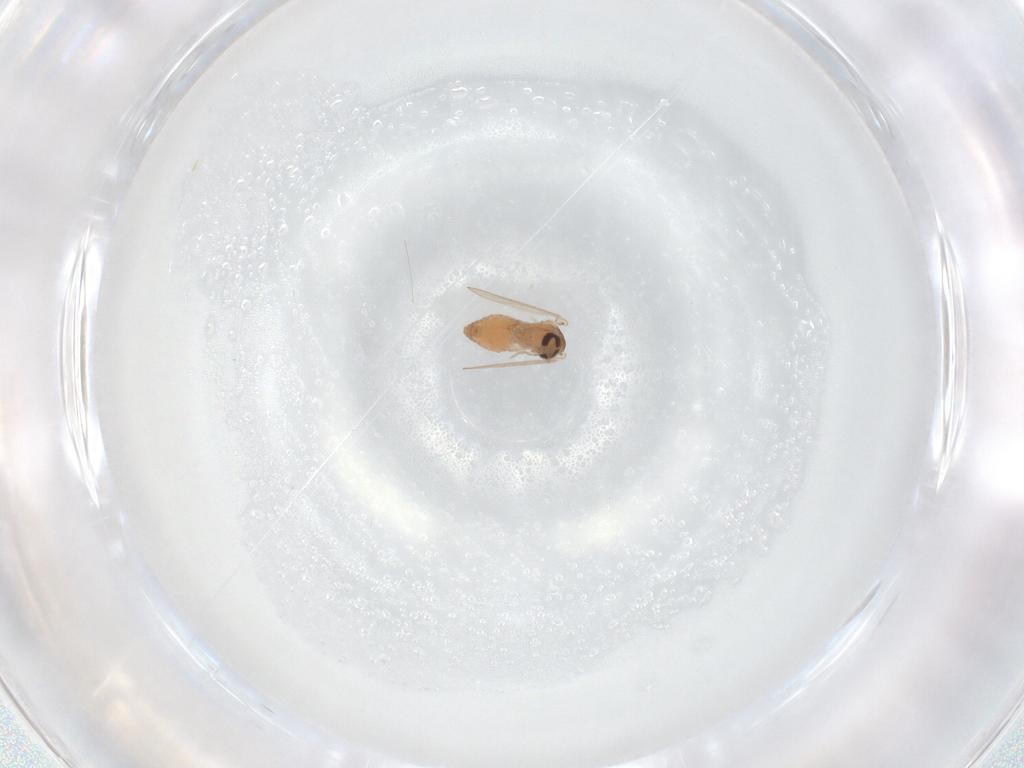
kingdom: Animalia
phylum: Arthropoda
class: Insecta
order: Diptera
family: Psychodidae
